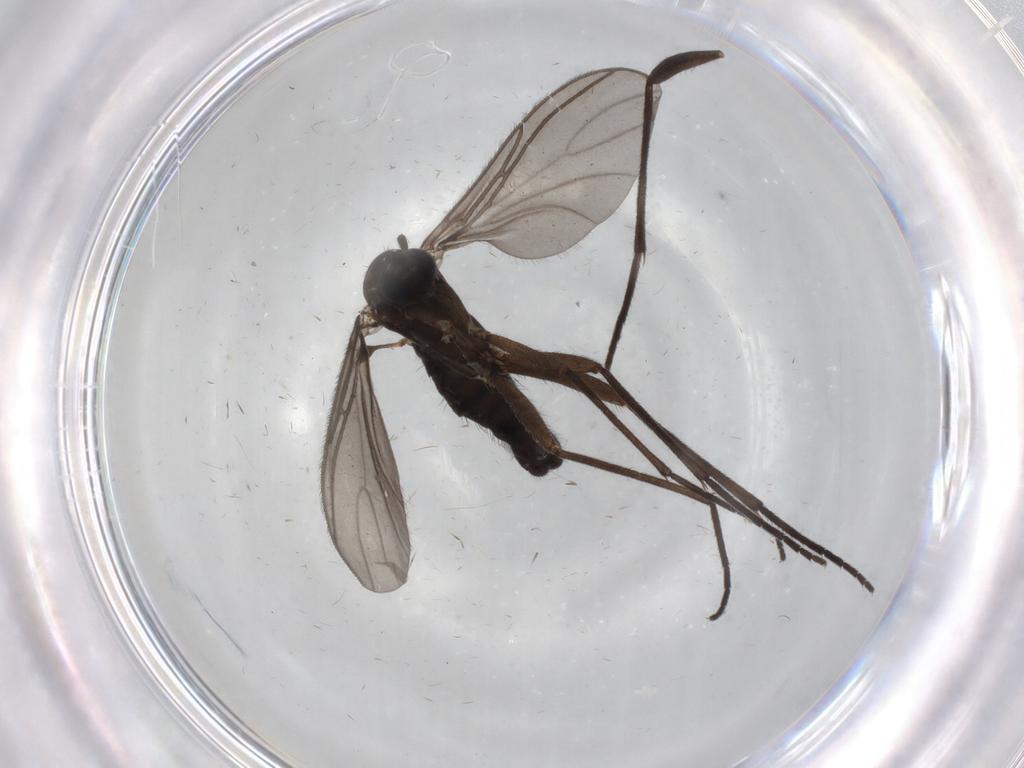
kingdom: Animalia
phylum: Arthropoda
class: Insecta
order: Diptera
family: Sciaridae
